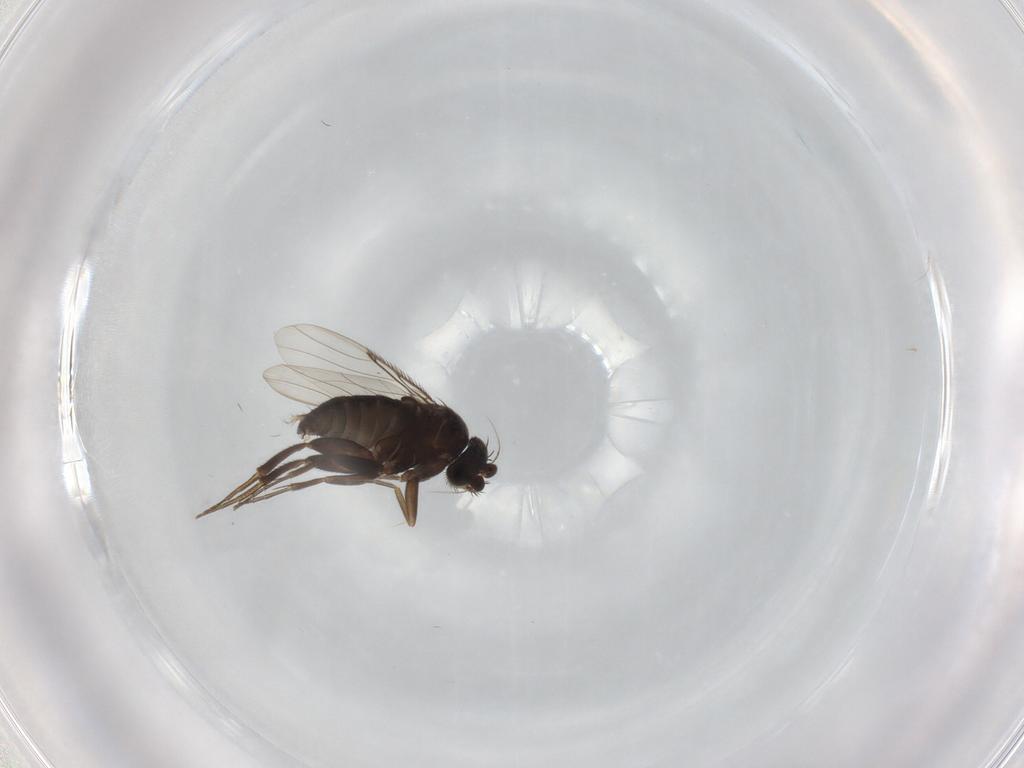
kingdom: Animalia
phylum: Arthropoda
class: Insecta
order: Diptera
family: Phoridae
